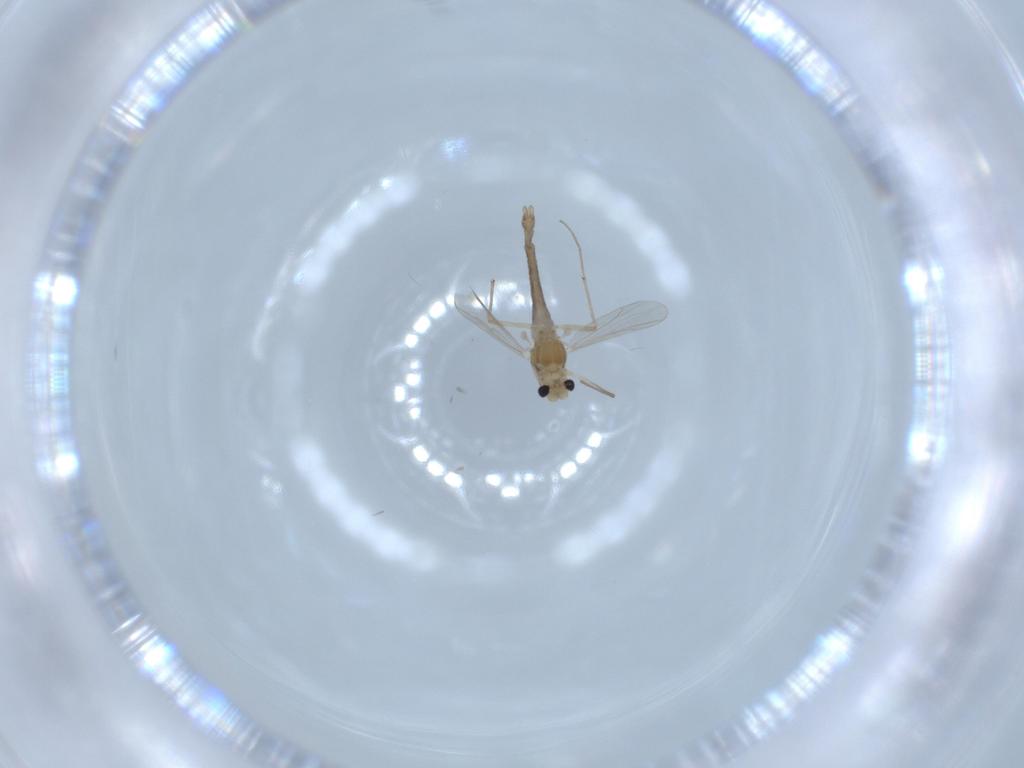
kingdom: Animalia
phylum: Arthropoda
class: Insecta
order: Diptera
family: Chironomidae
